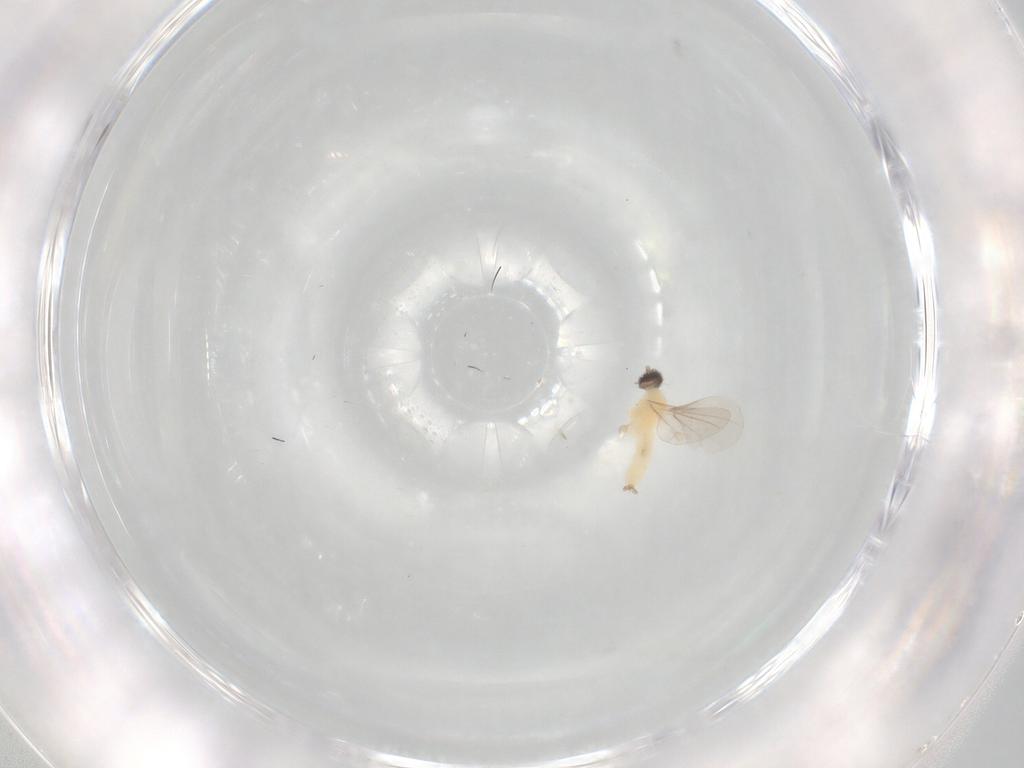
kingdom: Animalia
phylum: Arthropoda
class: Insecta
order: Diptera
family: Cecidomyiidae
